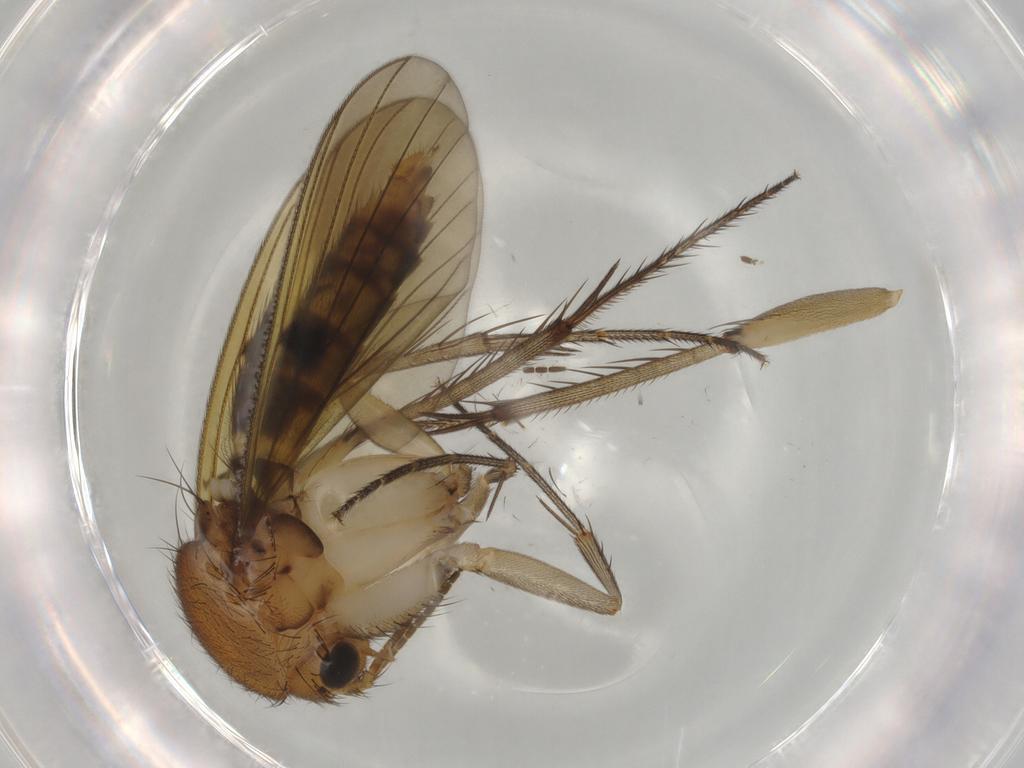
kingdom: Animalia
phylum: Arthropoda
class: Insecta
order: Diptera
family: Mycetophilidae
